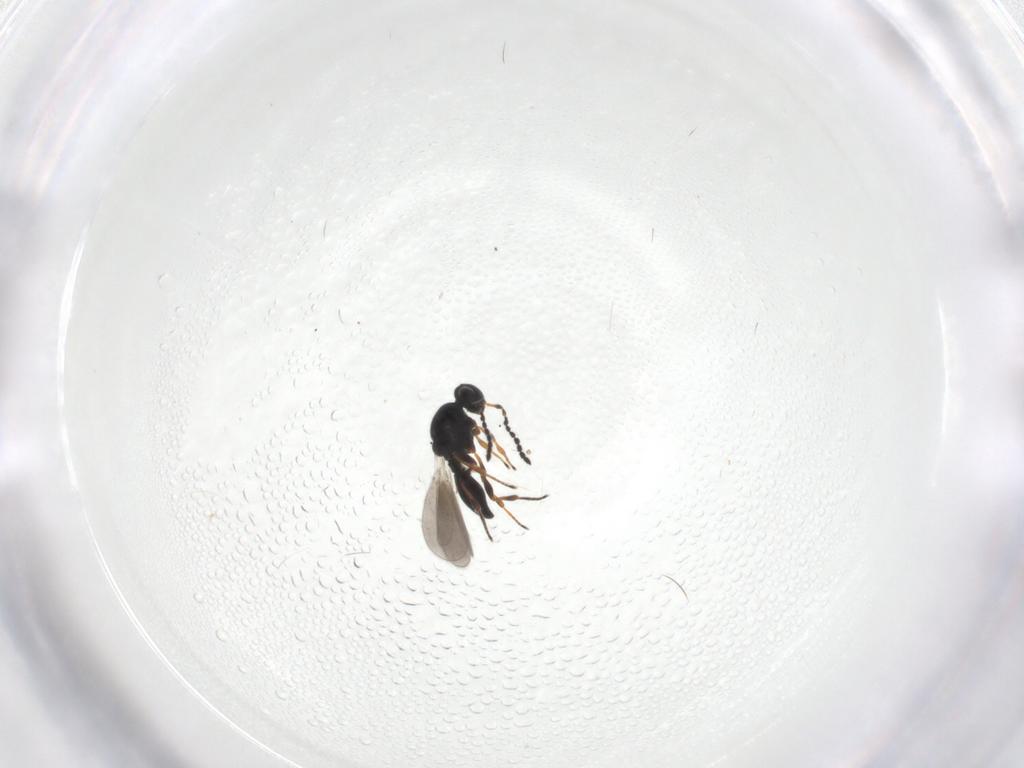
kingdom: Animalia
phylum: Arthropoda
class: Insecta
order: Hymenoptera
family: Platygastridae
